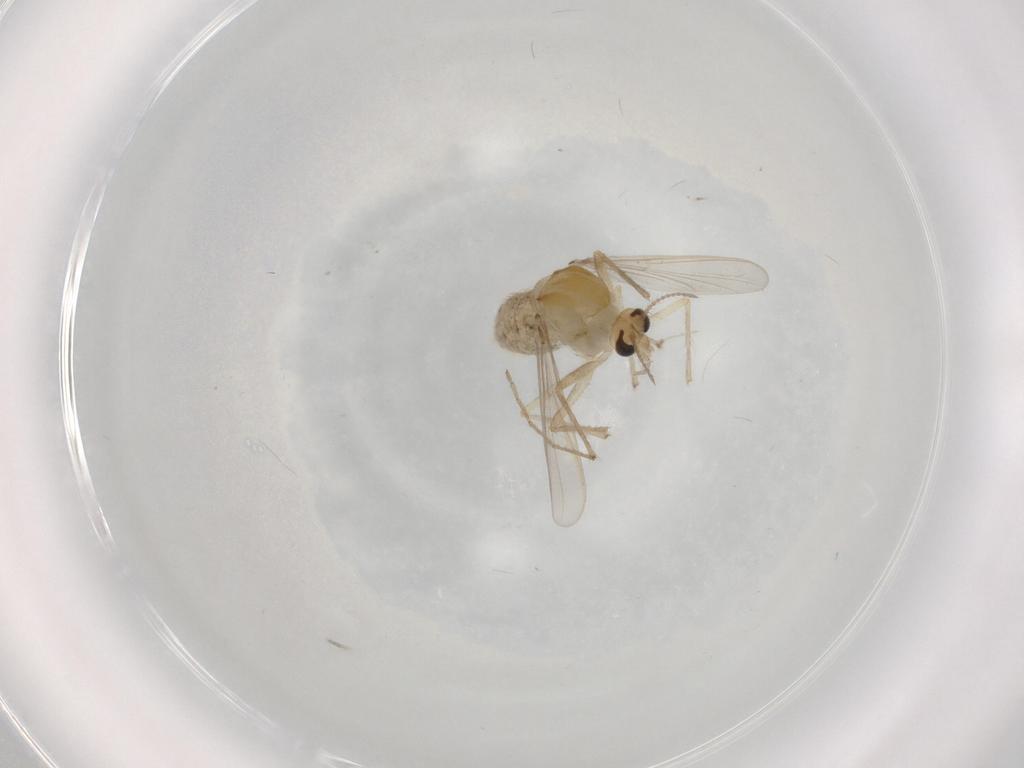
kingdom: Animalia
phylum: Arthropoda
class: Insecta
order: Diptera
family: Chironomidae
